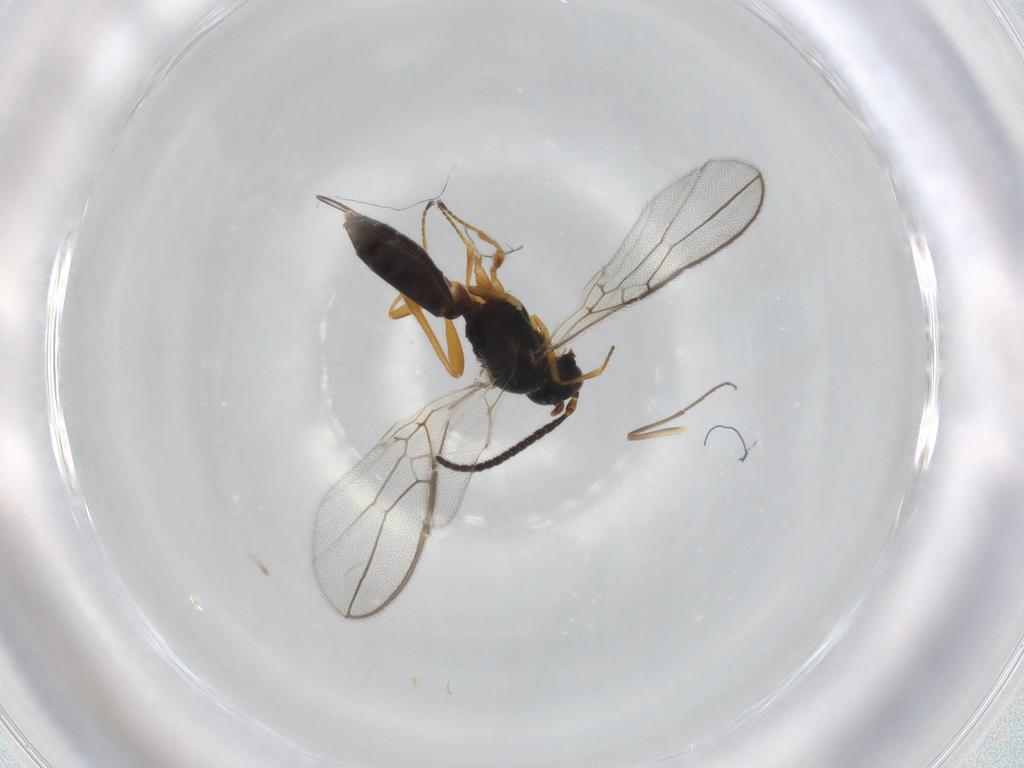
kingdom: Animalia
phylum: Arthropoda
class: Insecta
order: Hymenoptera
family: Braconidae
